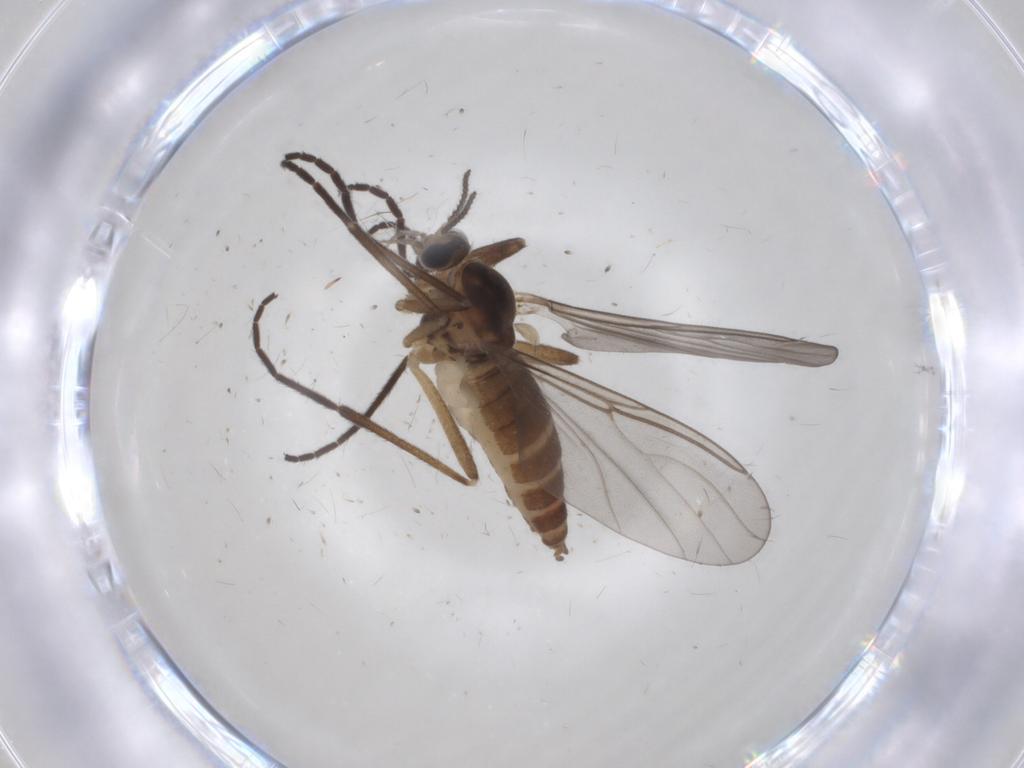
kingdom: Animalia
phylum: Arthropoda
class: Insecta
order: Diptera
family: Cecidomyiidae
